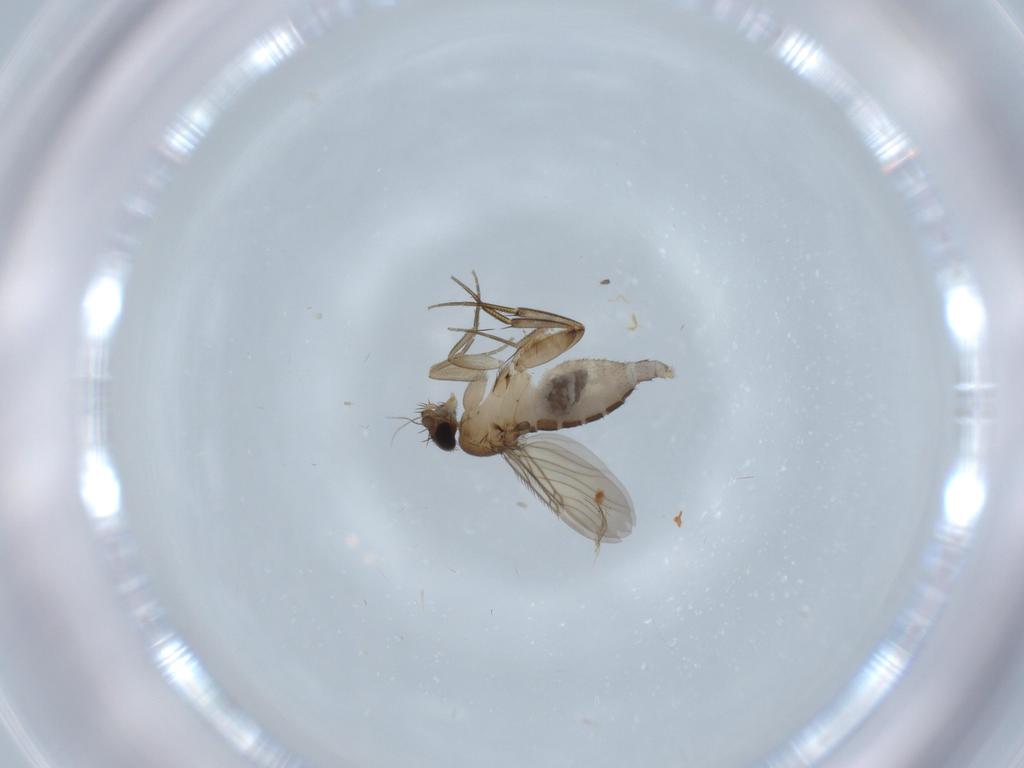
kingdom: Animalia
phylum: Arthropoda
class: Insecta
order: Diptera
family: Phoridae
